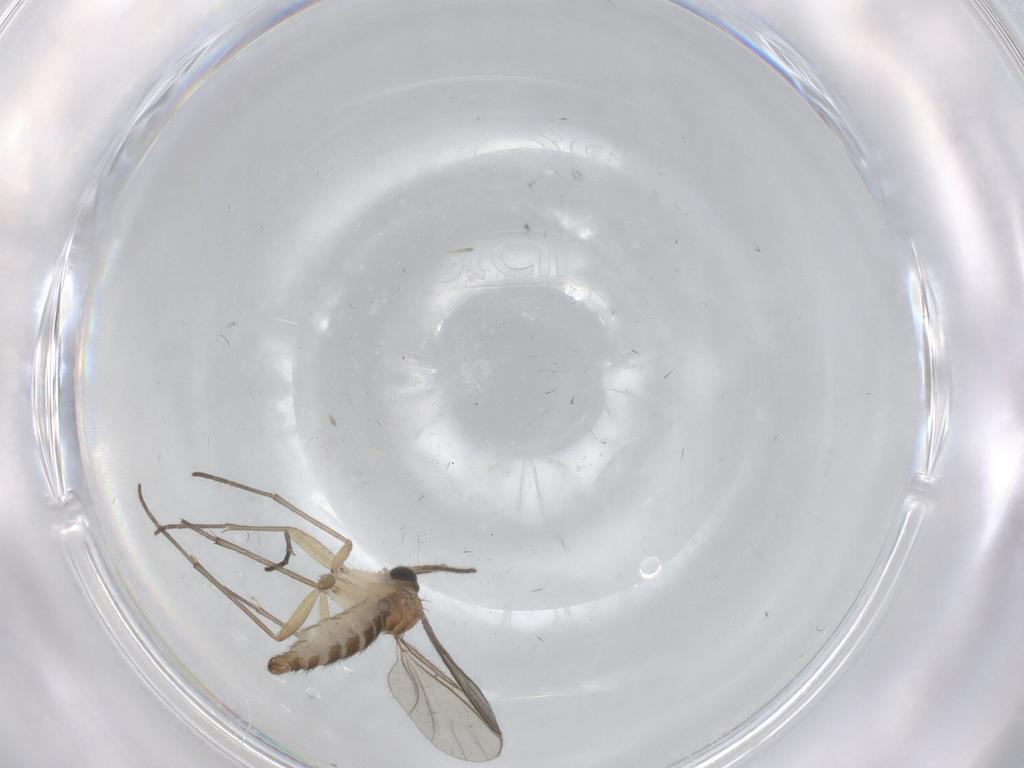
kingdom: Animalia
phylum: Arthropoda
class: Insecta
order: Diptera
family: Sciaridae
